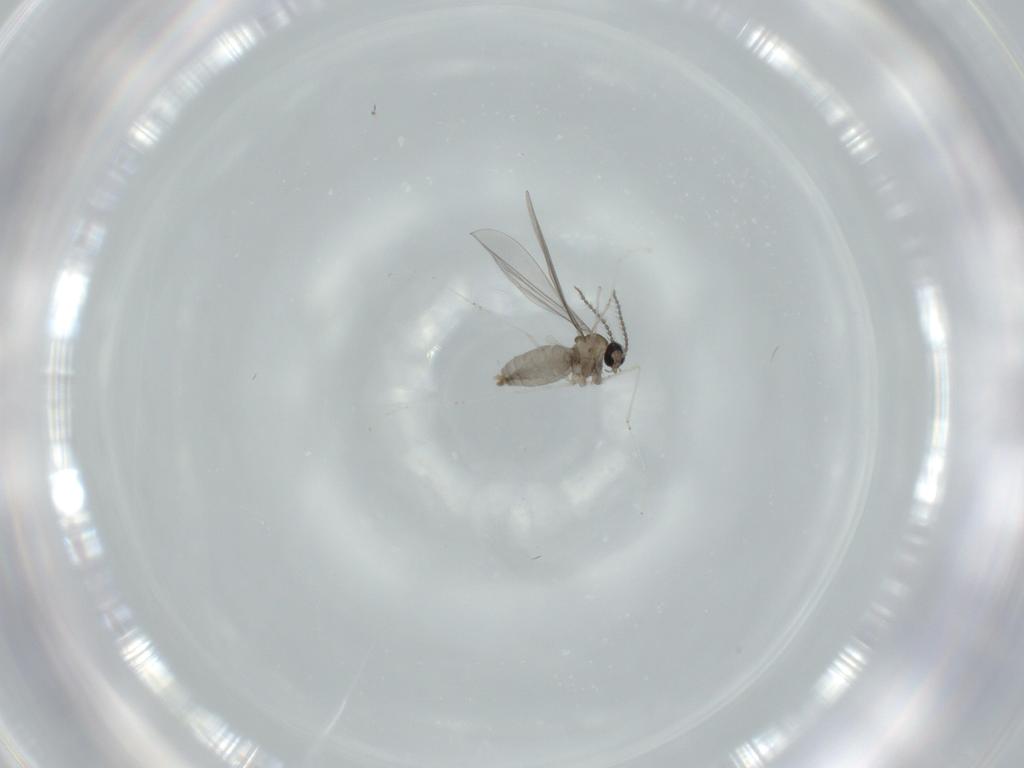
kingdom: Animalia
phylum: Arthropoda
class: Insecta
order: Diptera
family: Cecidomyiidae
